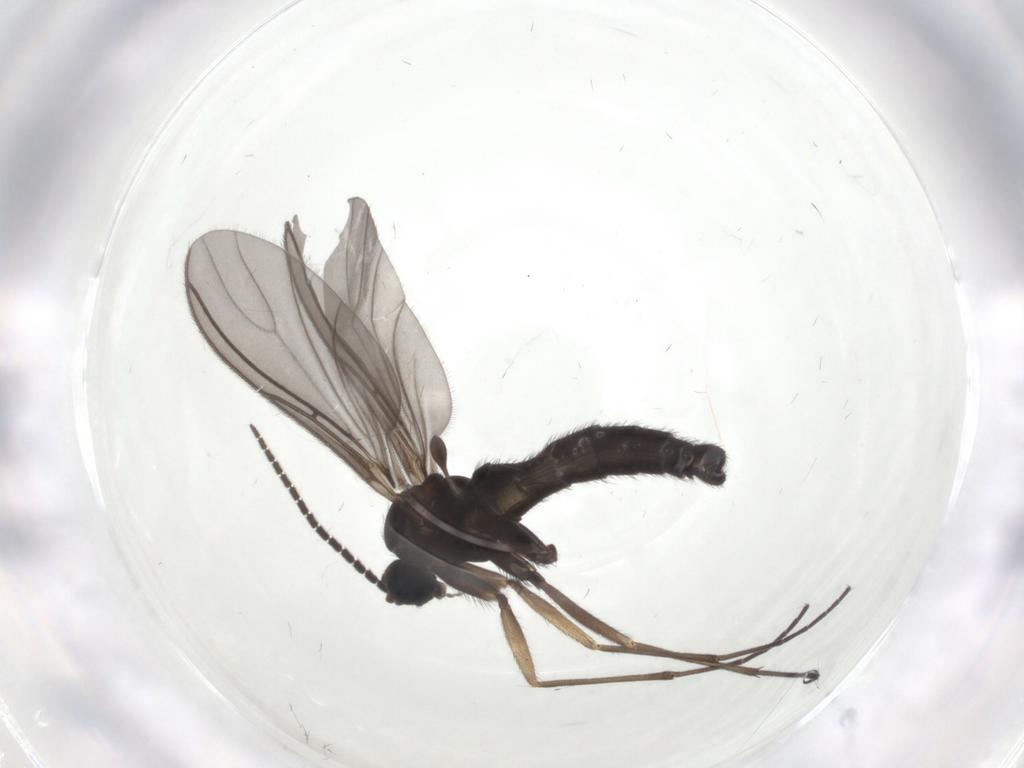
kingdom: Animalia
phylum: Arthropoda
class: Insecta
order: Diptera
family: Sciaridae
